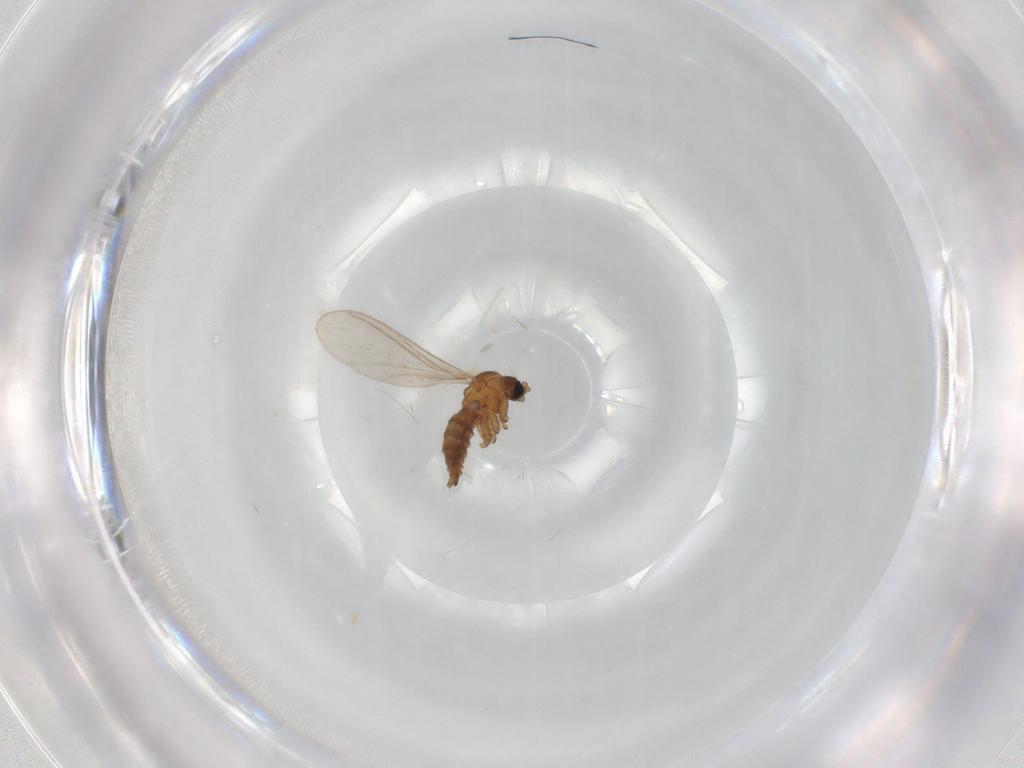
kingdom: Animalia
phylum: Arthropoda
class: Insecta
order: Diptera
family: Sciaridae
